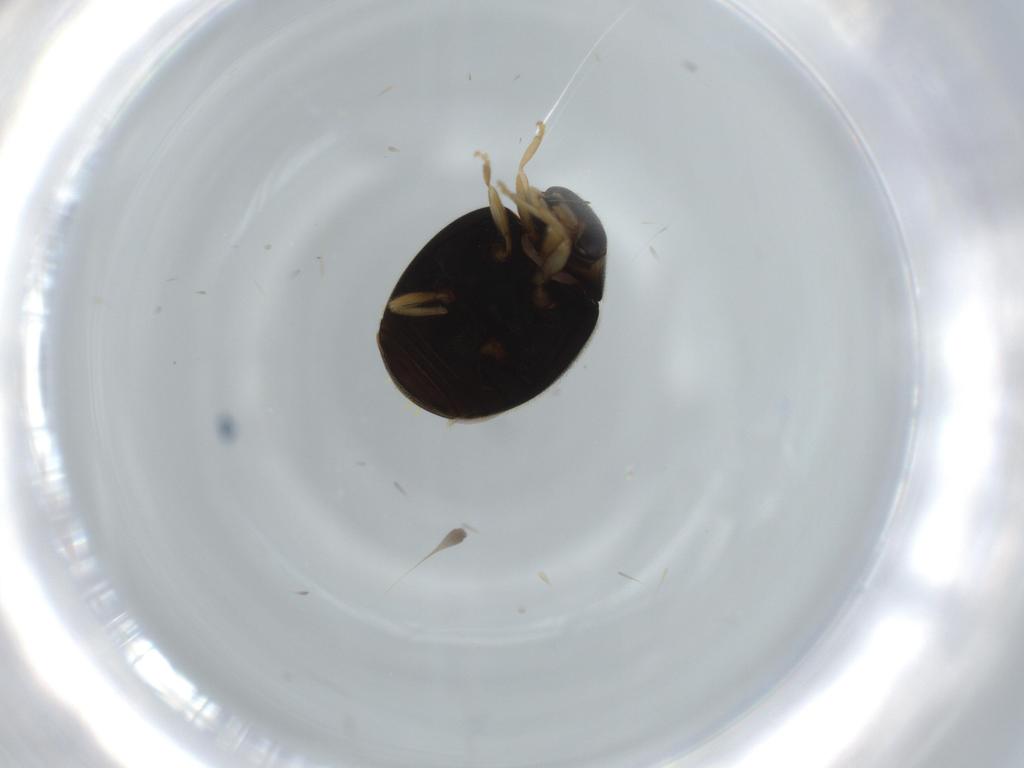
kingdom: Animalia
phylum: Arthropoda
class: Insecta
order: Coleoptera
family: Coccinellidae
